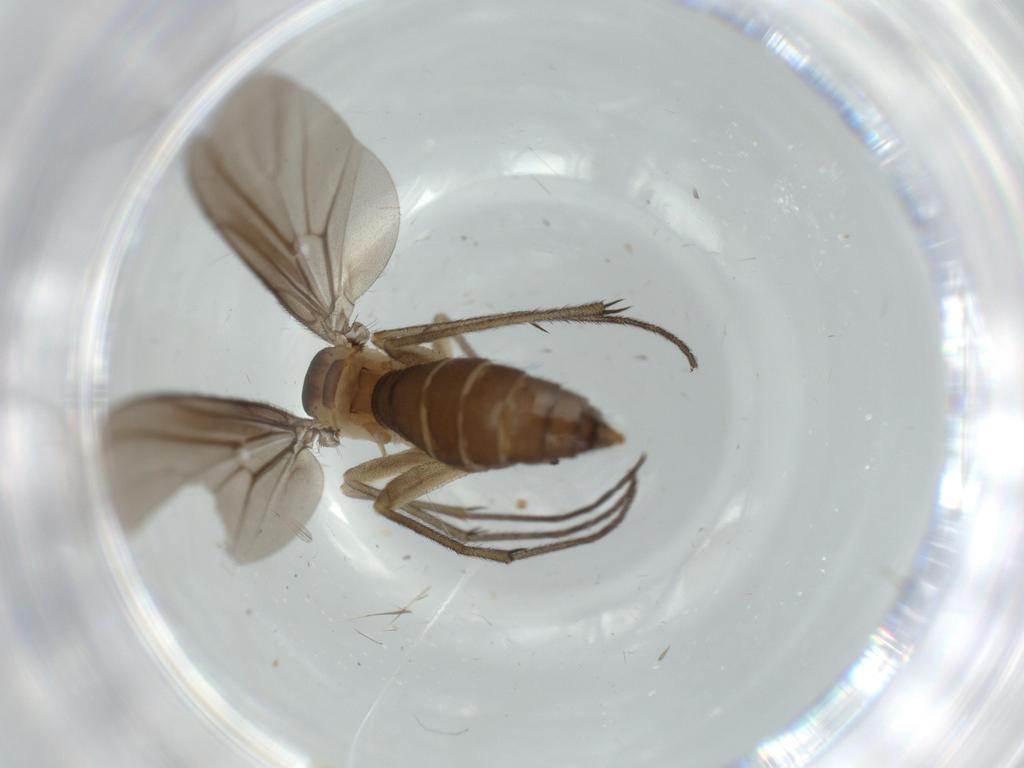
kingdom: Animalia
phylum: Arthropoda
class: Insecta
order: Diptera
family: Diadocidiidae
